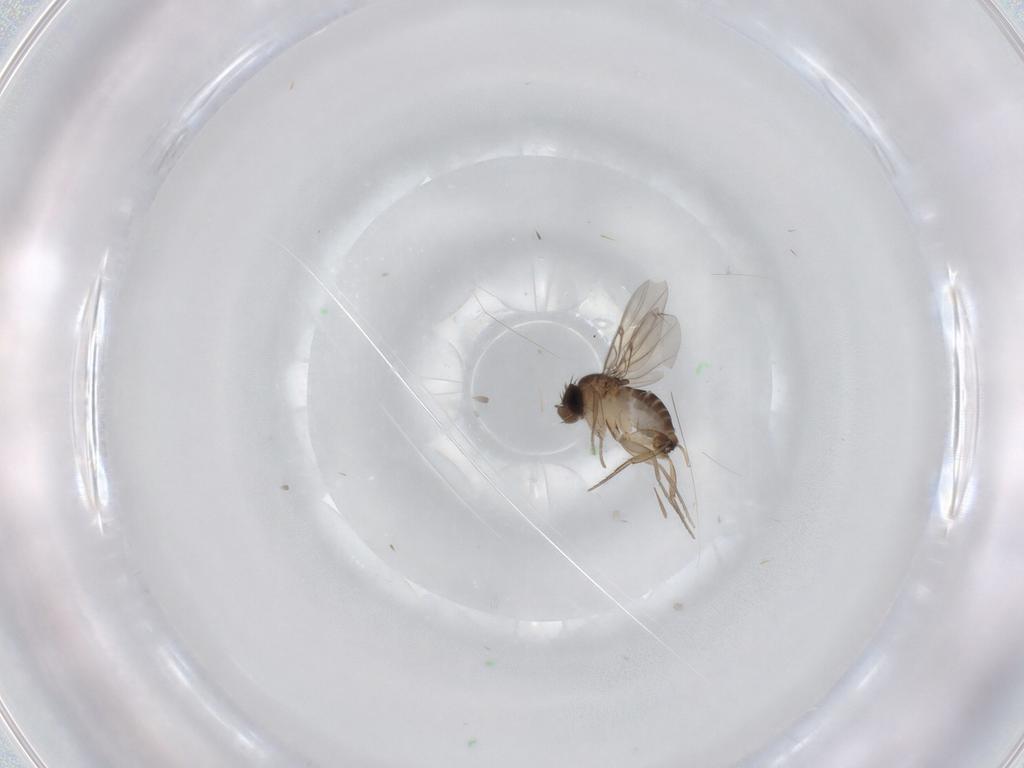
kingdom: Animalia
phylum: Arthropoda
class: Insecta
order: Diptera
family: Phoridae
